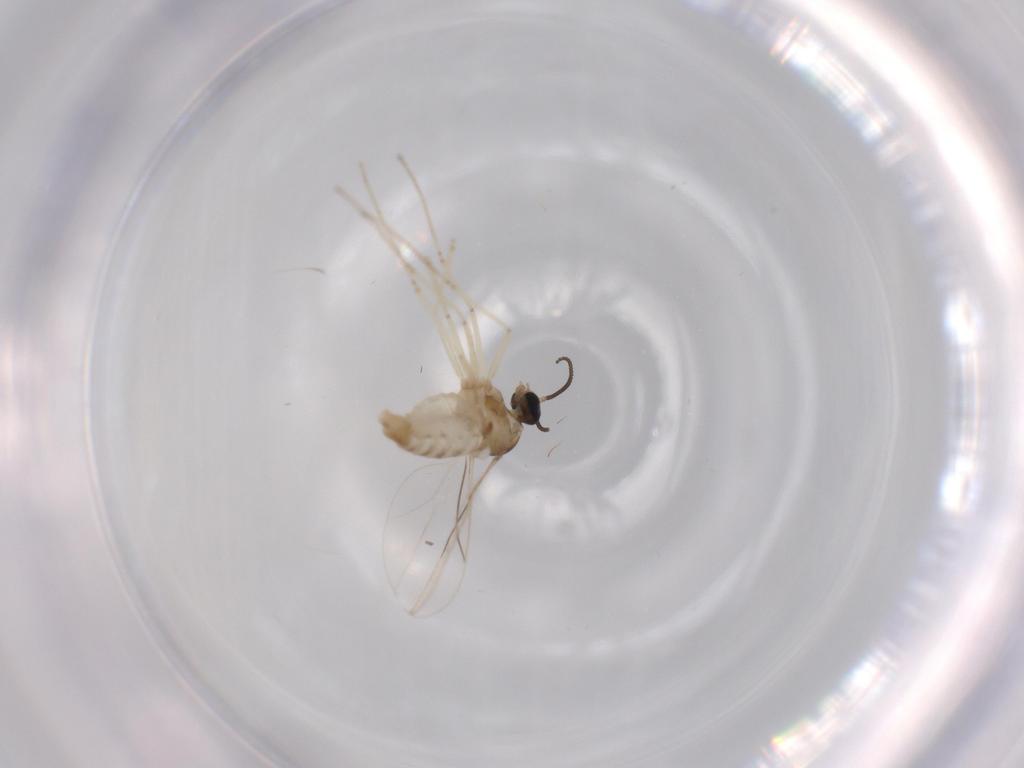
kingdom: Animalia
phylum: Arthropoda
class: Insecta
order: Diptera
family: Cecidomyiidae
